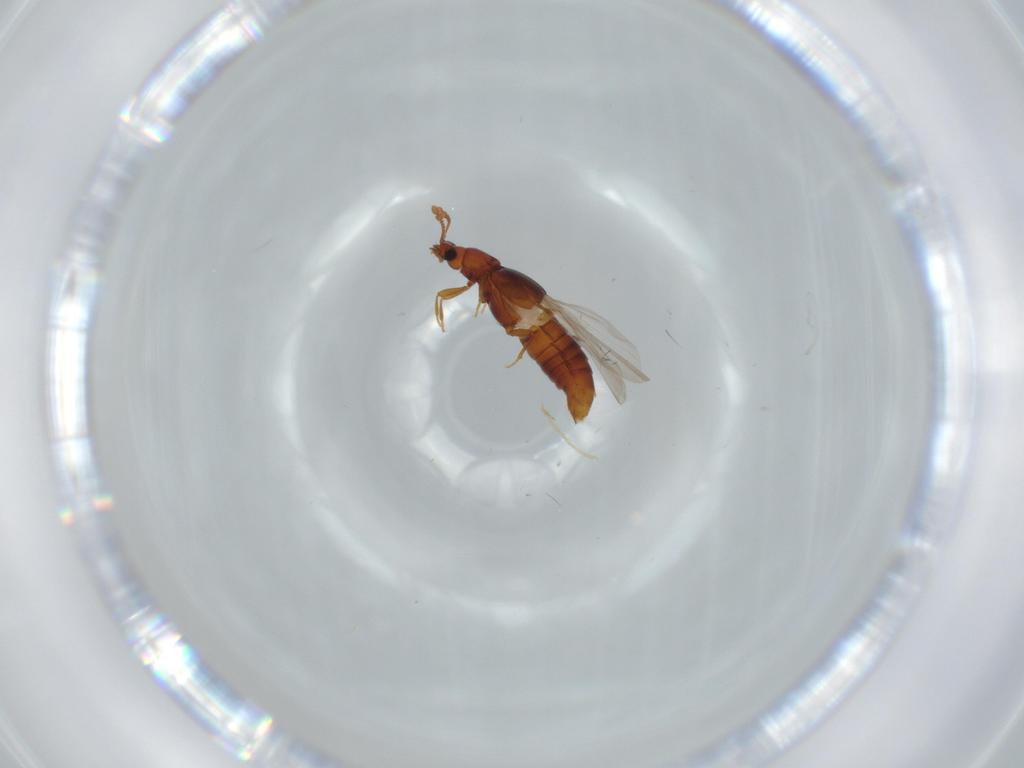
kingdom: Animalia
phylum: Arthropoda
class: Insecta
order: Coleoptera
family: Staphylinidae
